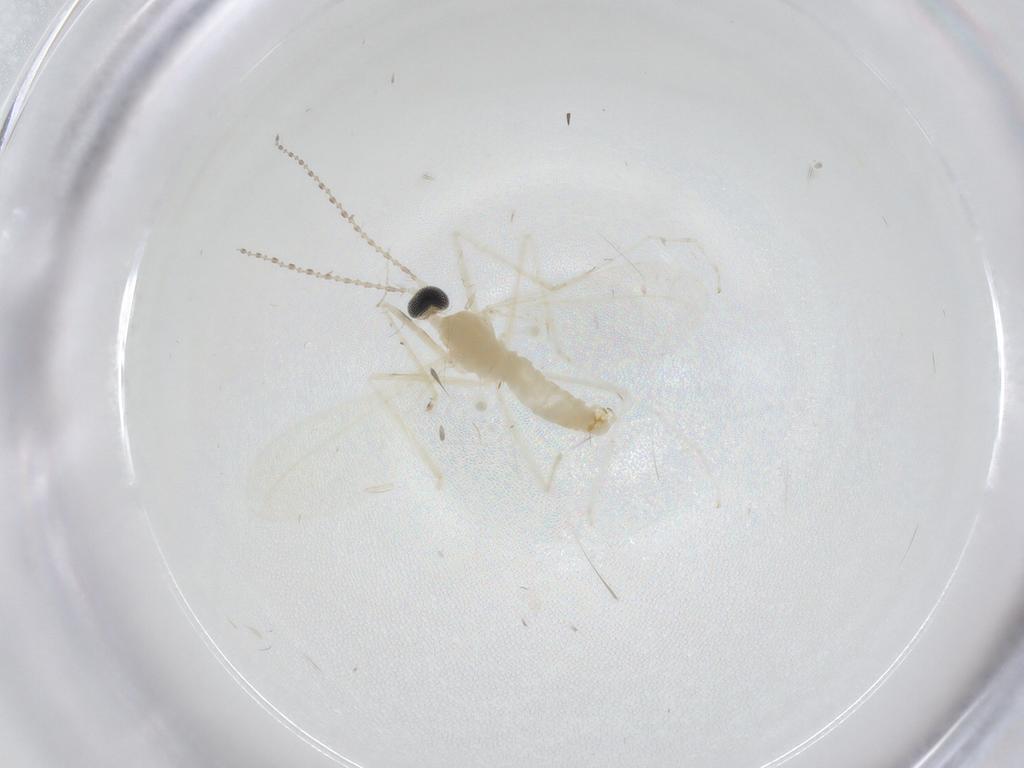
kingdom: Animalia
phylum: Arthropoda
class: Insecta
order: Diptera
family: Cecidomyiidae
